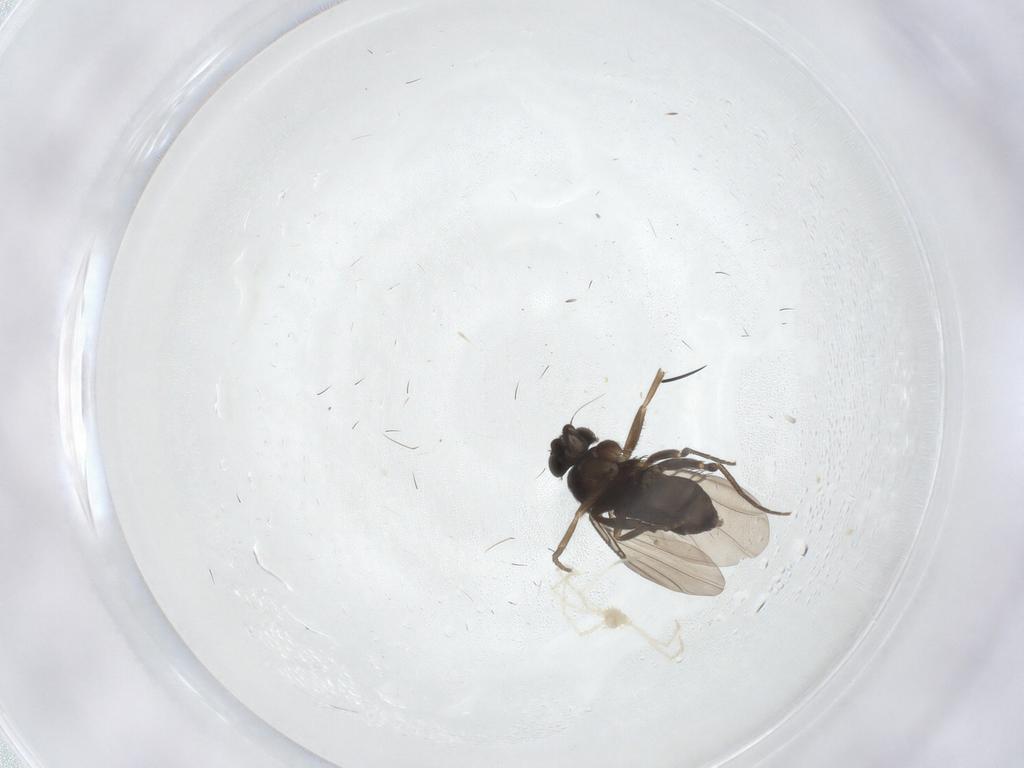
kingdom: Animalia
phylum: Arthropoda
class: Insecta
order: Diptera
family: Phoridae
